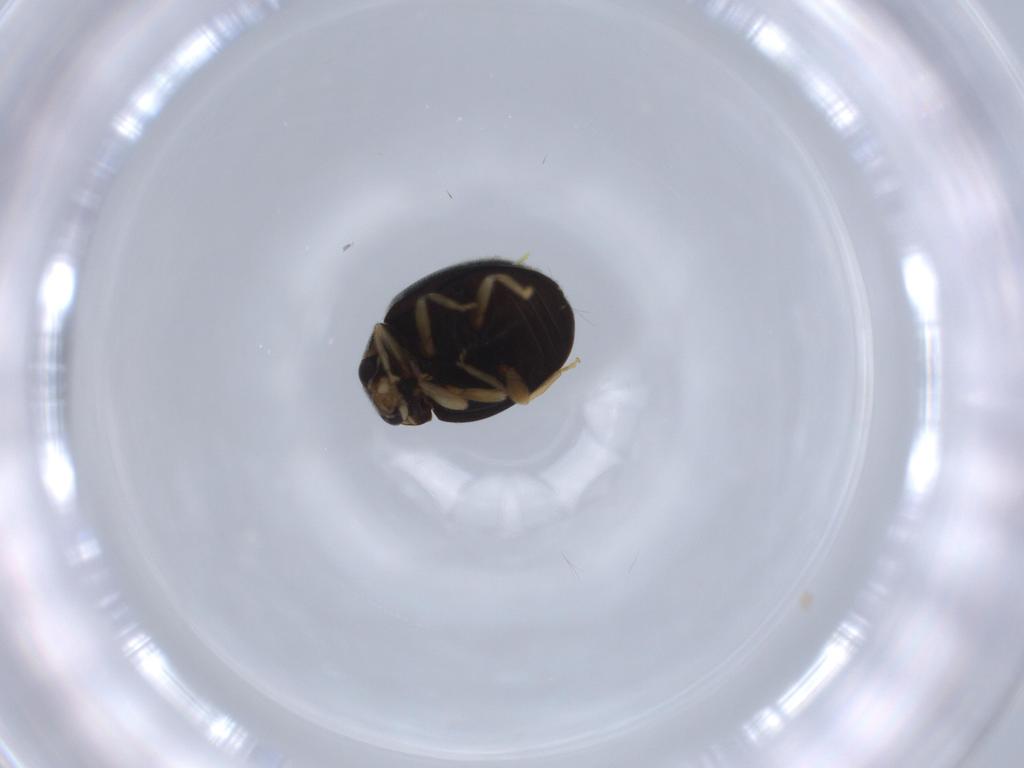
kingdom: Animalia
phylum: Arthropoda
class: Insecta
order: Coleoptera
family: Coccinellidae
